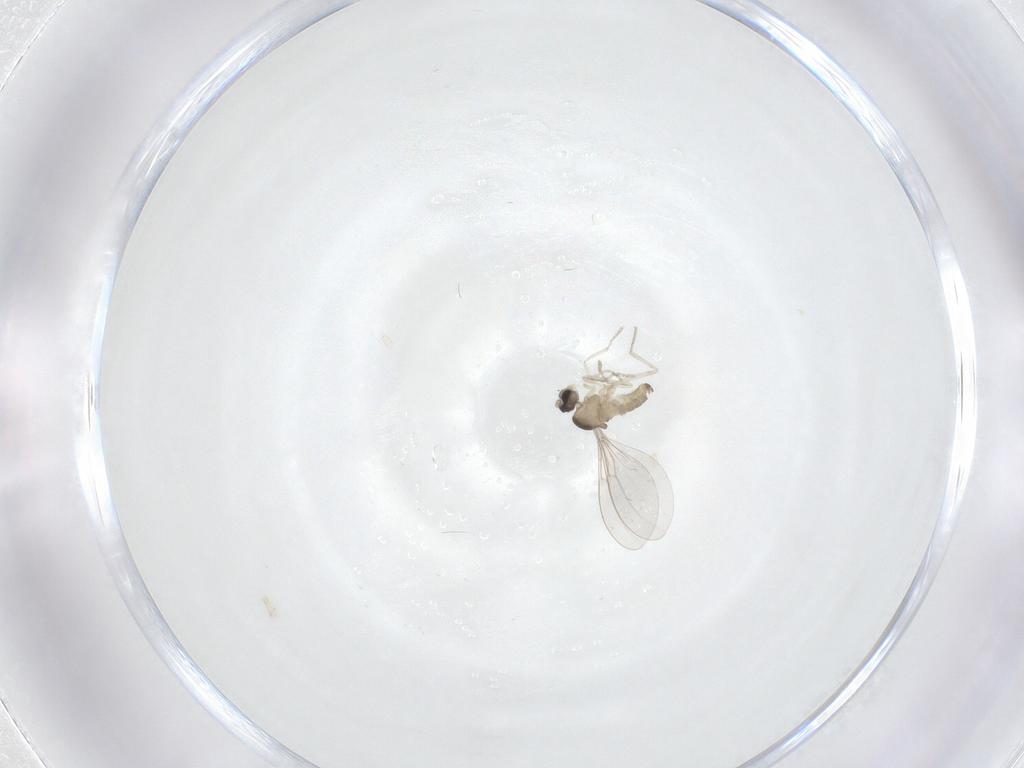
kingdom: Animalia
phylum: Arthropoda
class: Insecta
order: Diptera
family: Cecidomyiidae
